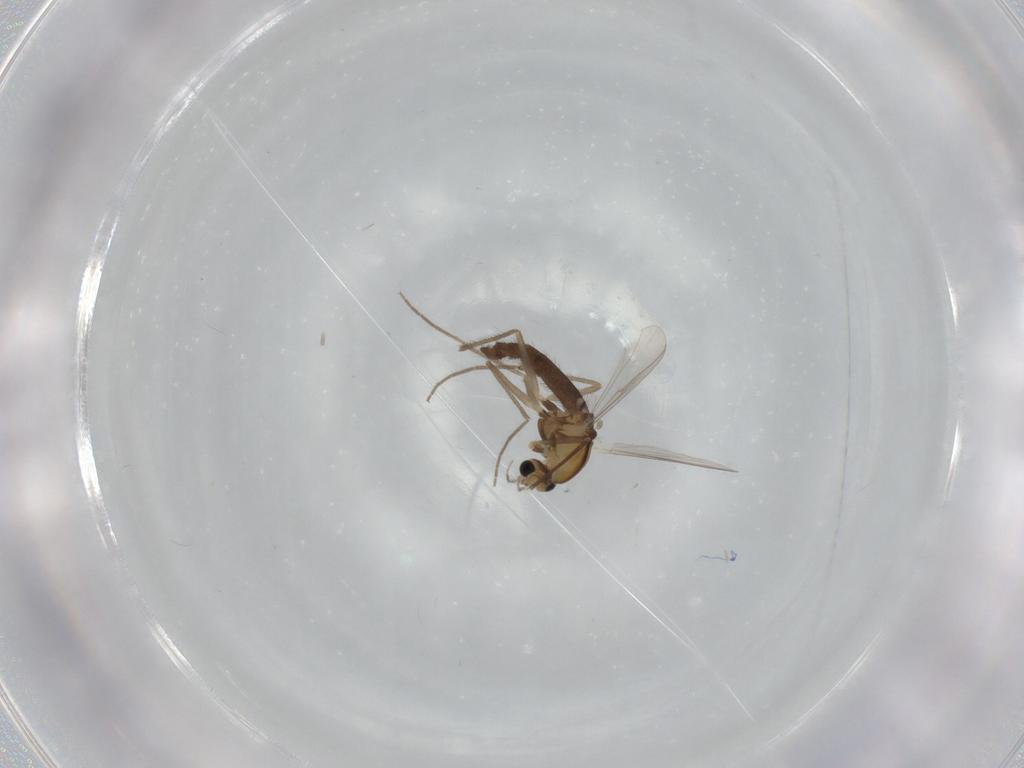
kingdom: Animalia
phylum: Arthropoda
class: Insecta
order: Diptera
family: Chironomidae
